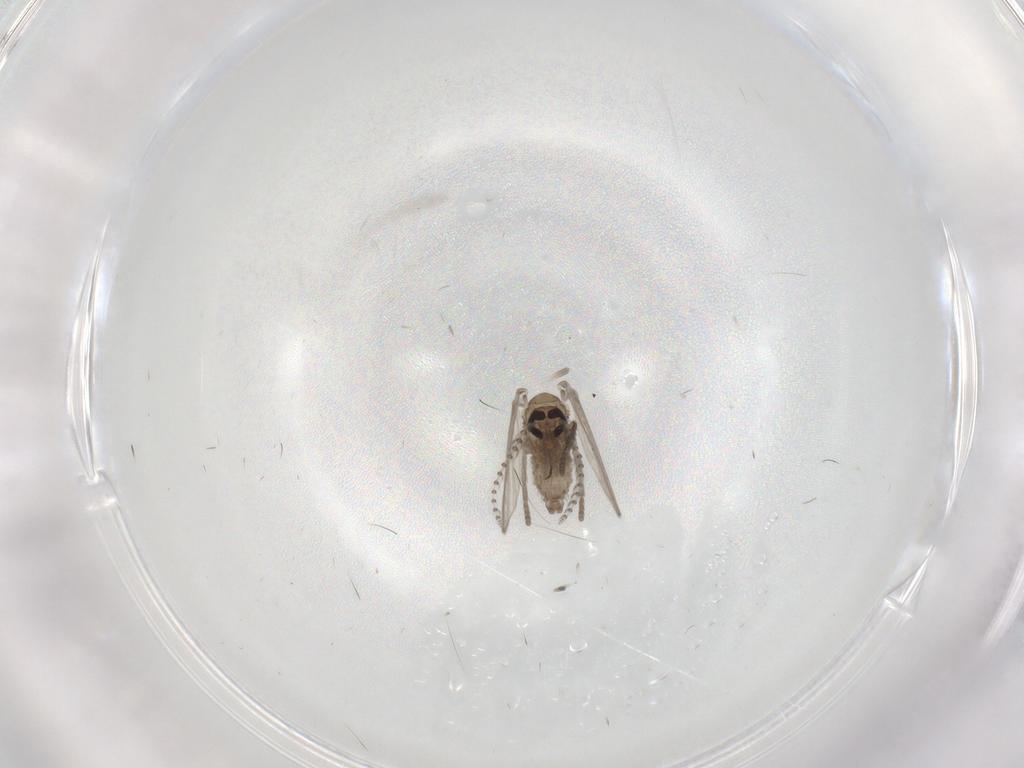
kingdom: Animalia
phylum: Arthropoda
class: Insecta
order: Diptera
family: Psychodidae
